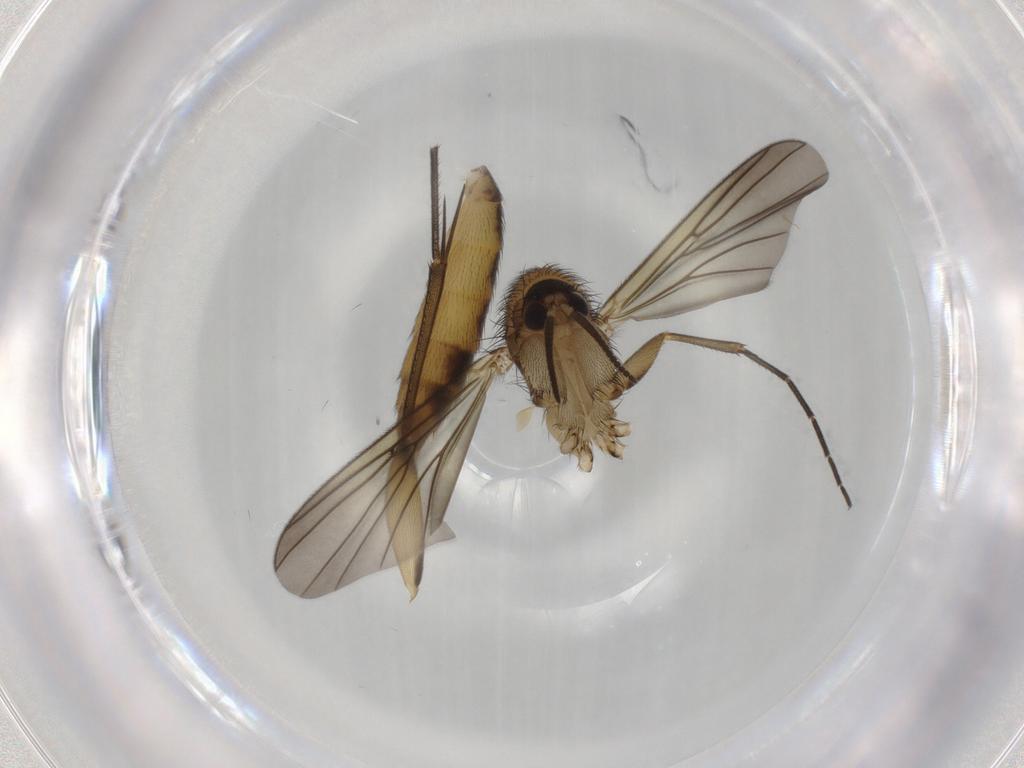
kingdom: Animalia
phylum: Arthropoda
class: Insecta
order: Diptera
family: Mycetophilidae
